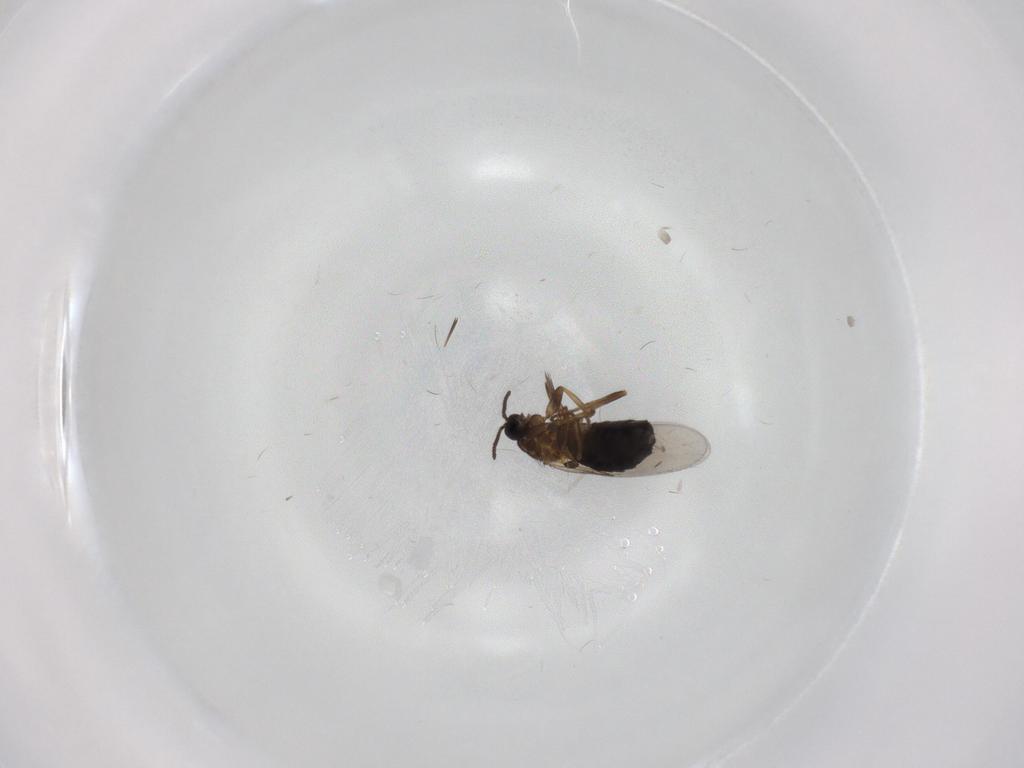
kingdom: Animalia
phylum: Arthropoda
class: Insecta
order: Diptera
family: Scatopsidae
